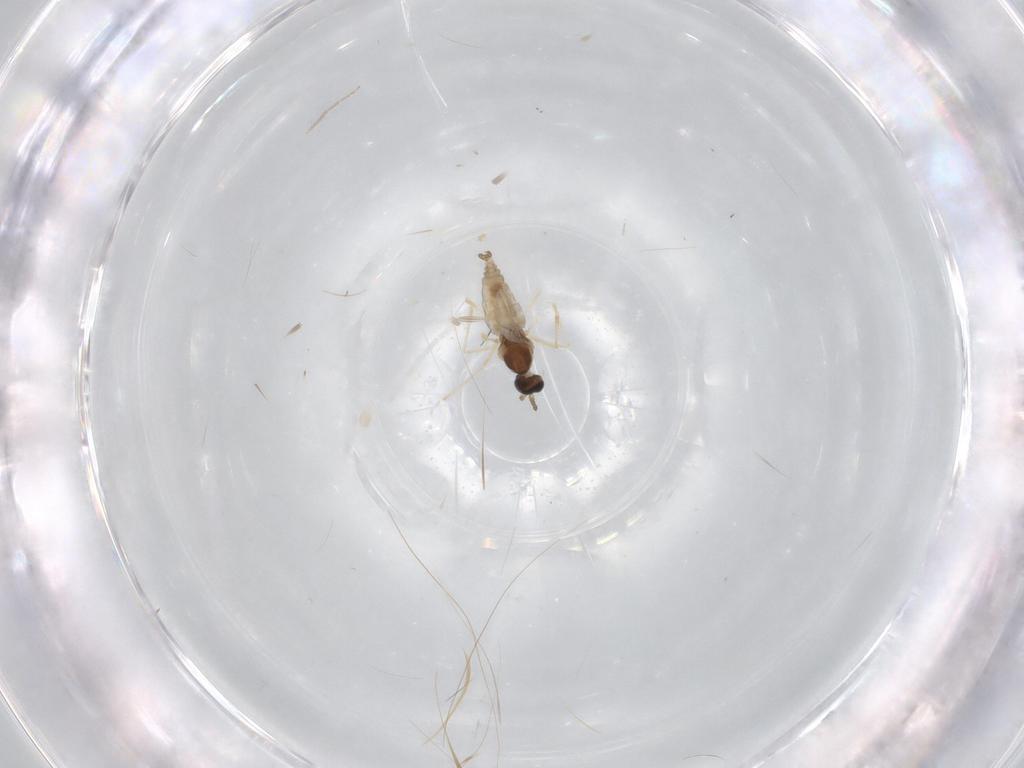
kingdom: Animalia
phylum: Arthropoda
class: Insecta
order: Diptera
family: Chironomidae
